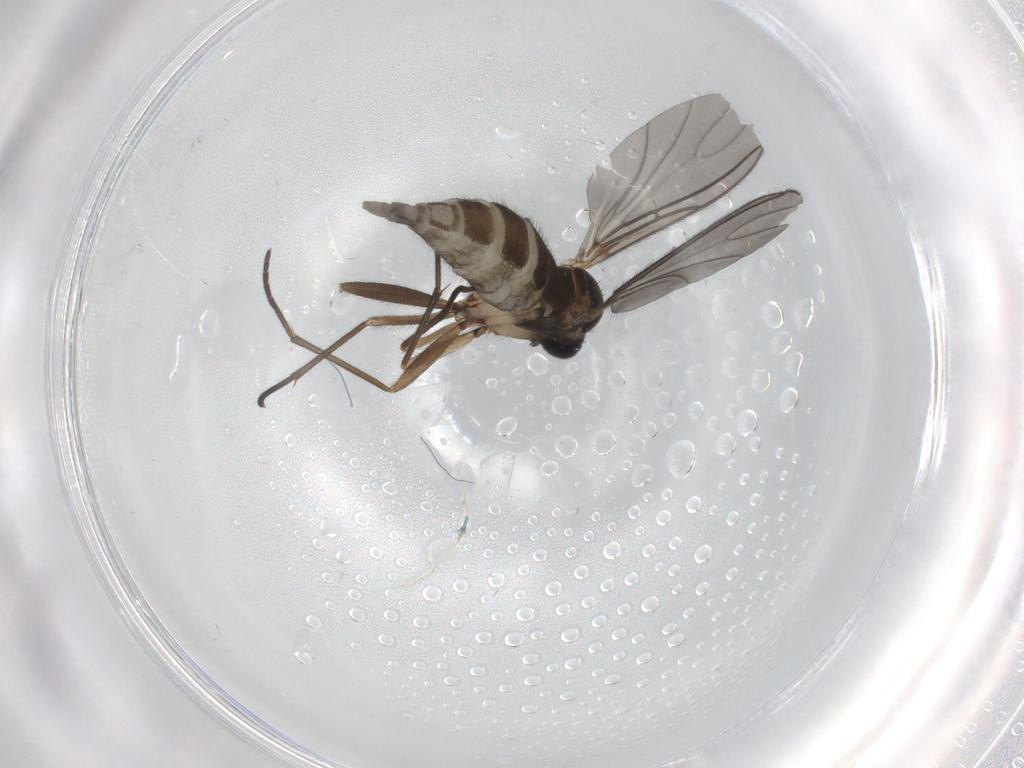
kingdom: Animalia
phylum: Arthropoda
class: Insecta
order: Diptera
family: Sciaridae
